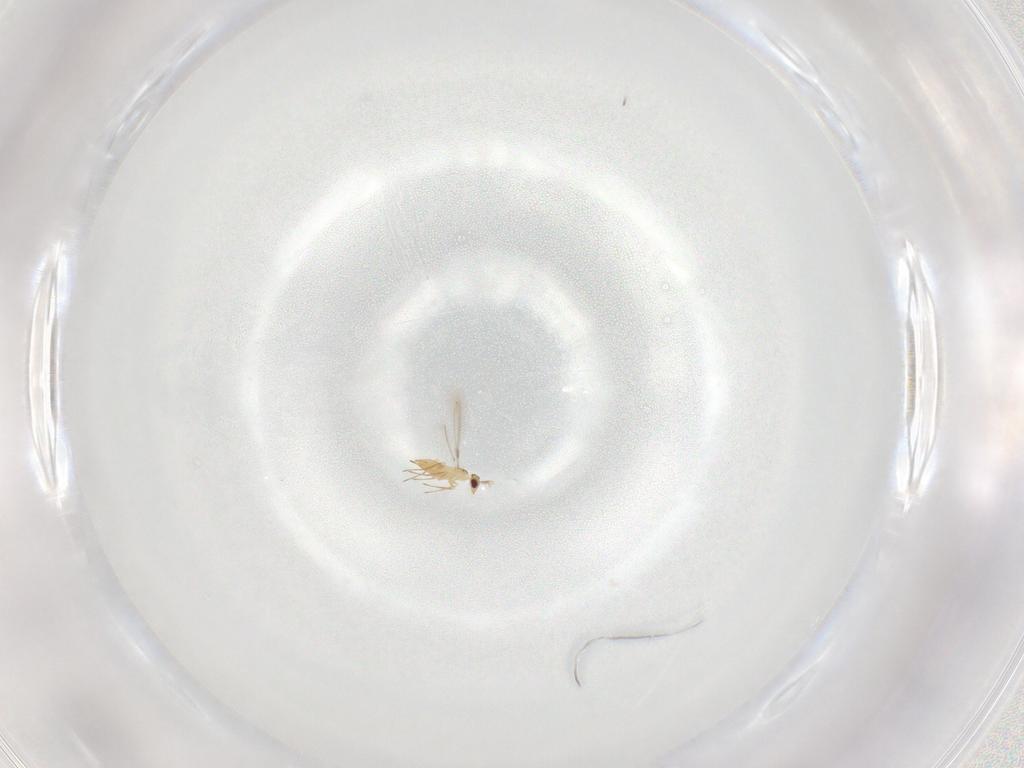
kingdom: Animalia
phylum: Arthropoda
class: Insecta
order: Hymenoptera
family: Mymaridae
